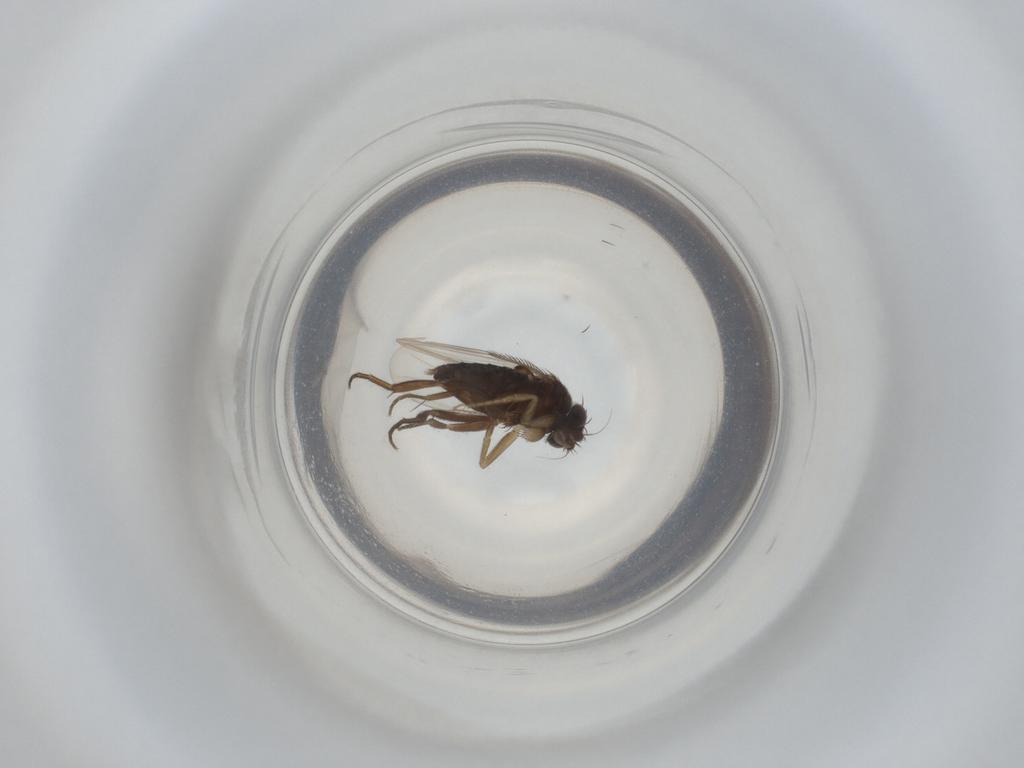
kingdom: Animalia
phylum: Arthropoda
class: Insecta
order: Diptera
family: Phoridae
